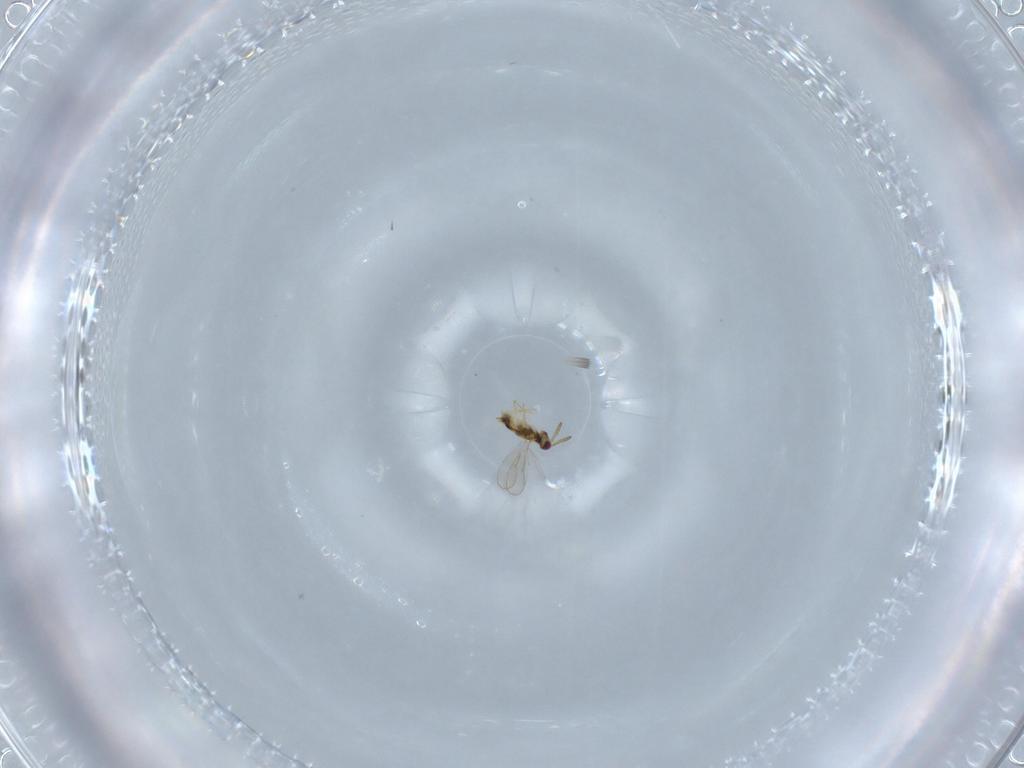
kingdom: Animalia
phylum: Arthropoda
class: Insecta
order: Hymenoptera
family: Aphelinidae
